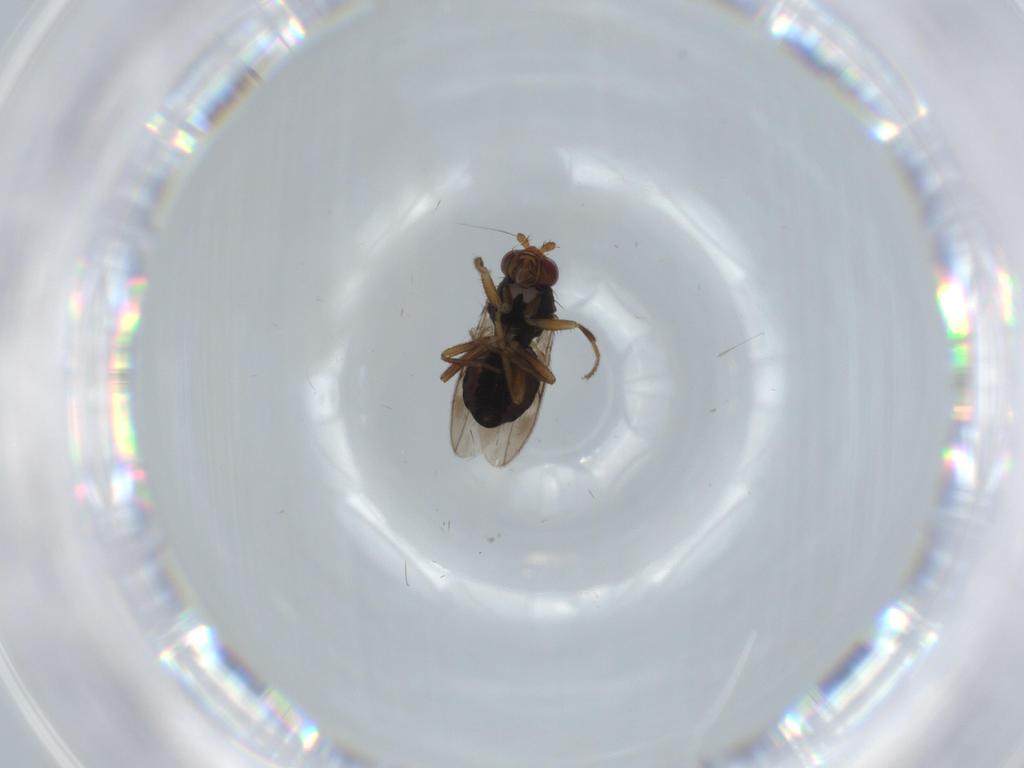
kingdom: Animalia
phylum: Arthropoda
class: Insecta
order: Diptera
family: Sphaeroceridae
